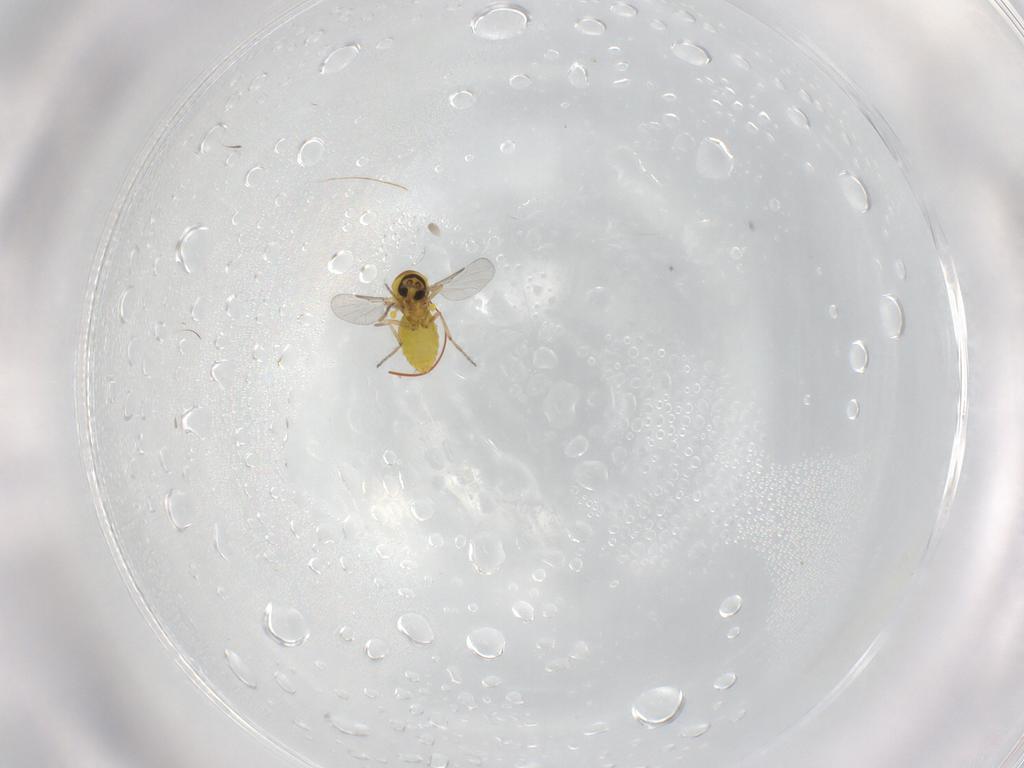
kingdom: Animalia
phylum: Arthropoda
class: Insecta
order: Diptera
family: Ceratopogonidae
